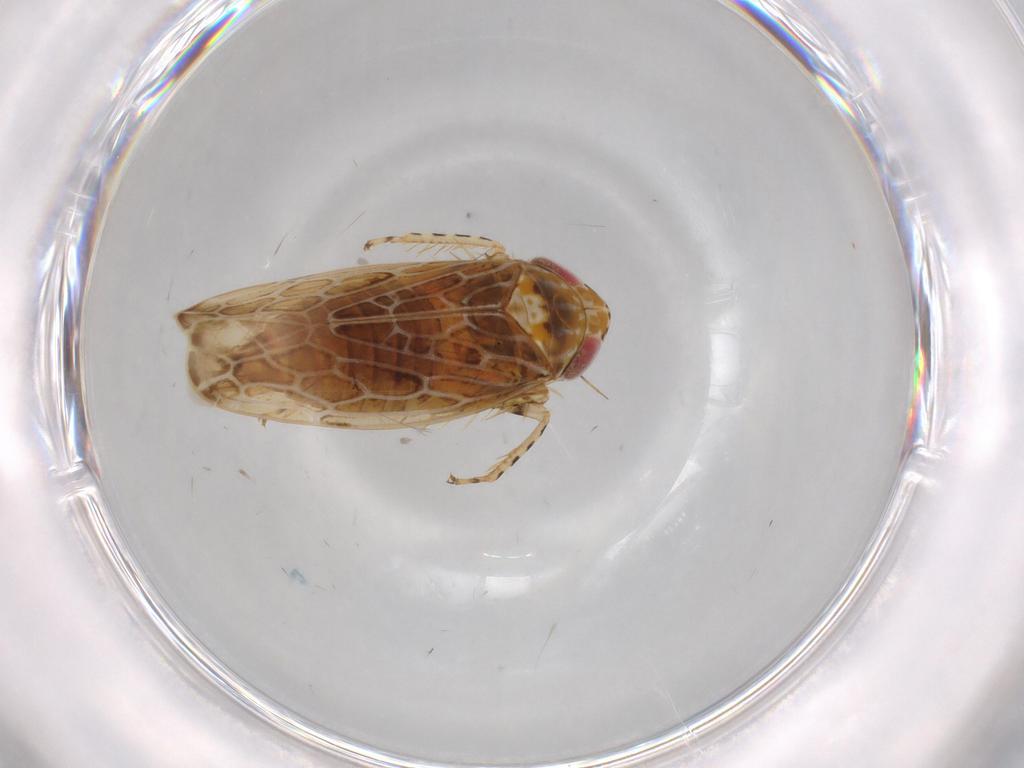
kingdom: Animalia
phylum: Arthropoda
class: Insecta
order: Hemiptera
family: Cicadellidae
